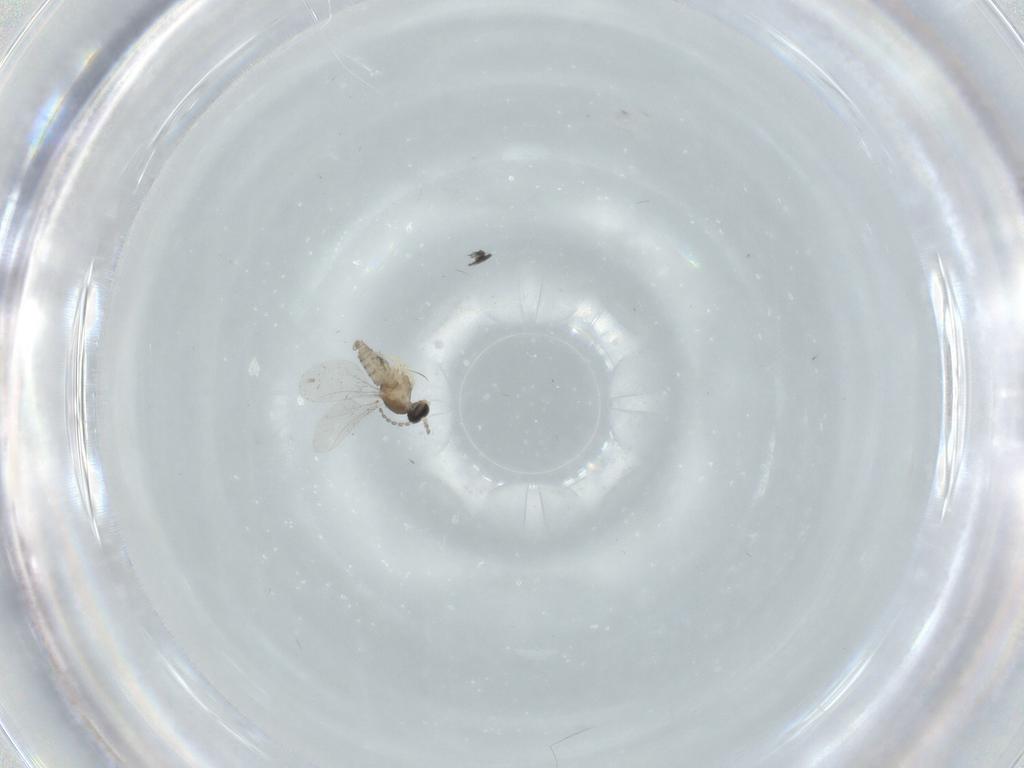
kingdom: Animalia
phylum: Arthropoda
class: Insecta
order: Diptera
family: Cecidomyiidae
